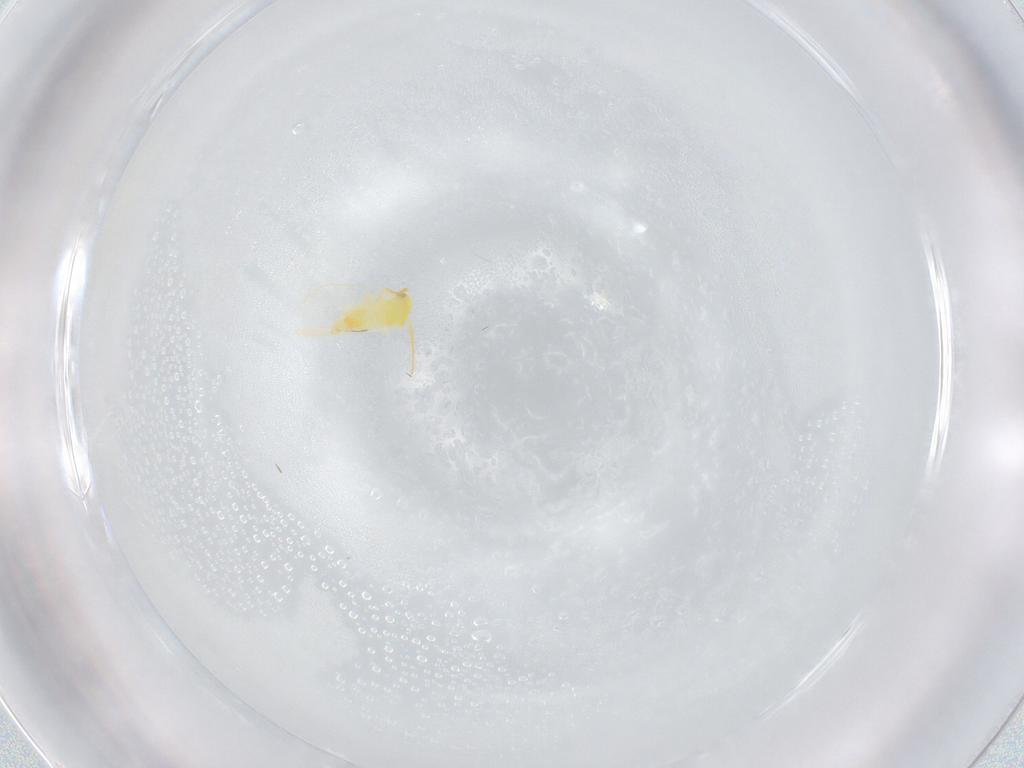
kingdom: Animalia
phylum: Arthropoda
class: Insecta
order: Hemiptera
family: Aleyrodidae
